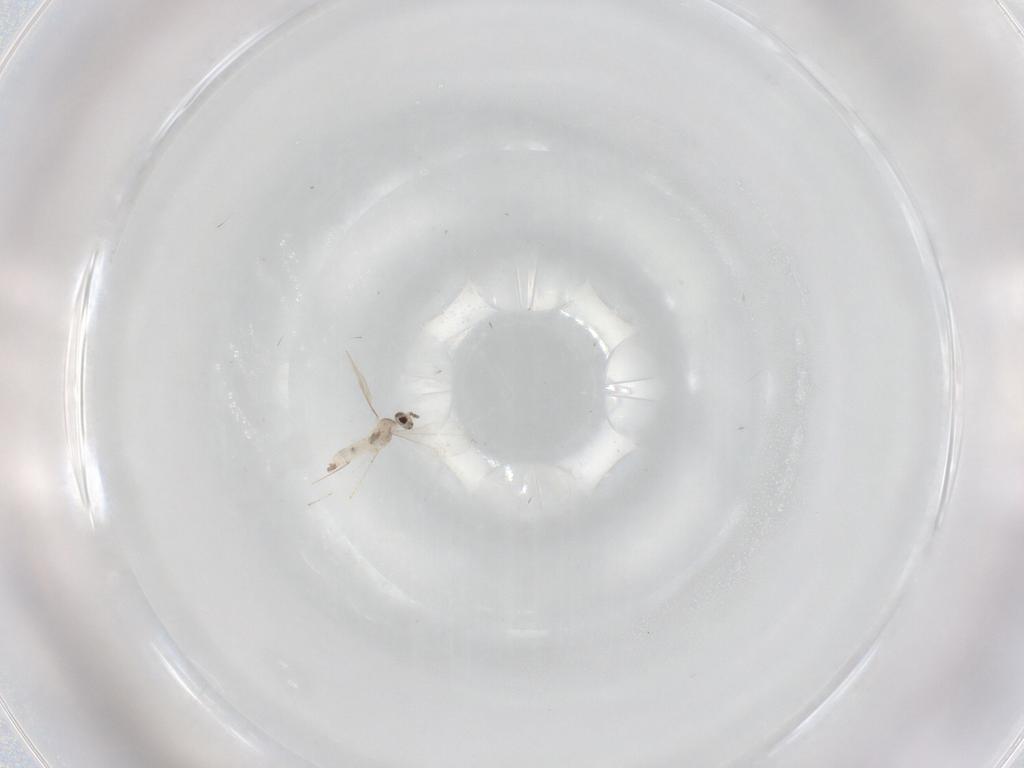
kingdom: Animalia
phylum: Arthropoda
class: Insecta
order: Diptera
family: Cecidomyiidae
